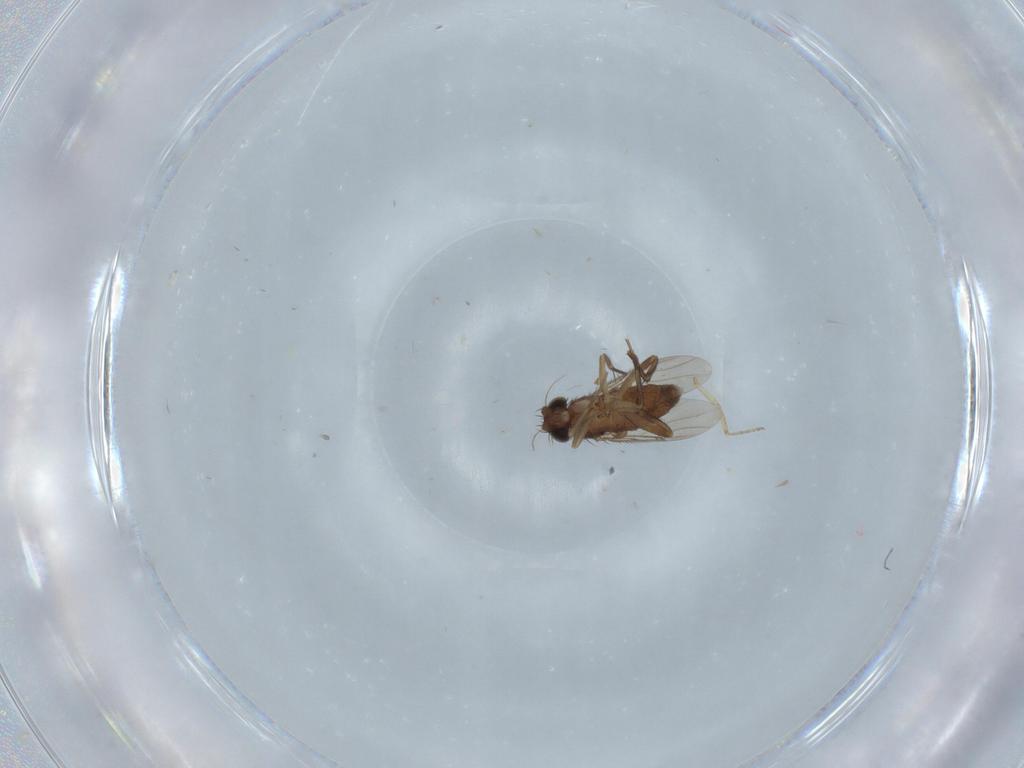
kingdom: Animalia
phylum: Arthropoda
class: Insecta
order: Diptera
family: Phoridae
